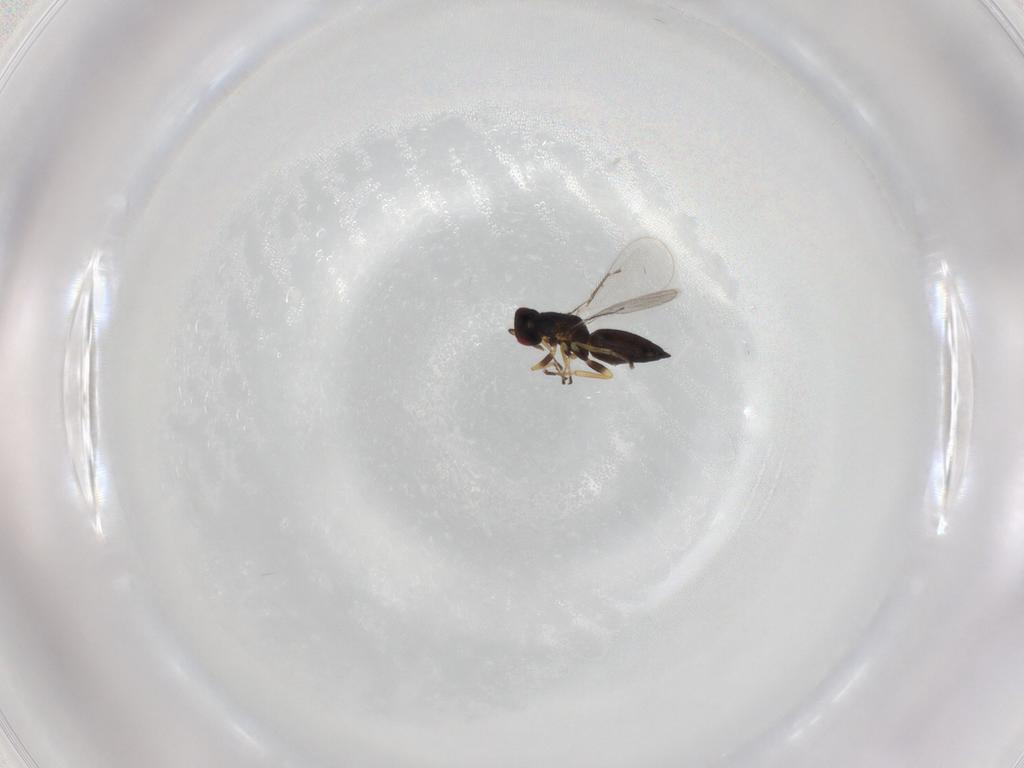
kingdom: Animalia
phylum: Arthropoda
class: Insecta
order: Hymenoptera
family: Eulophidae
